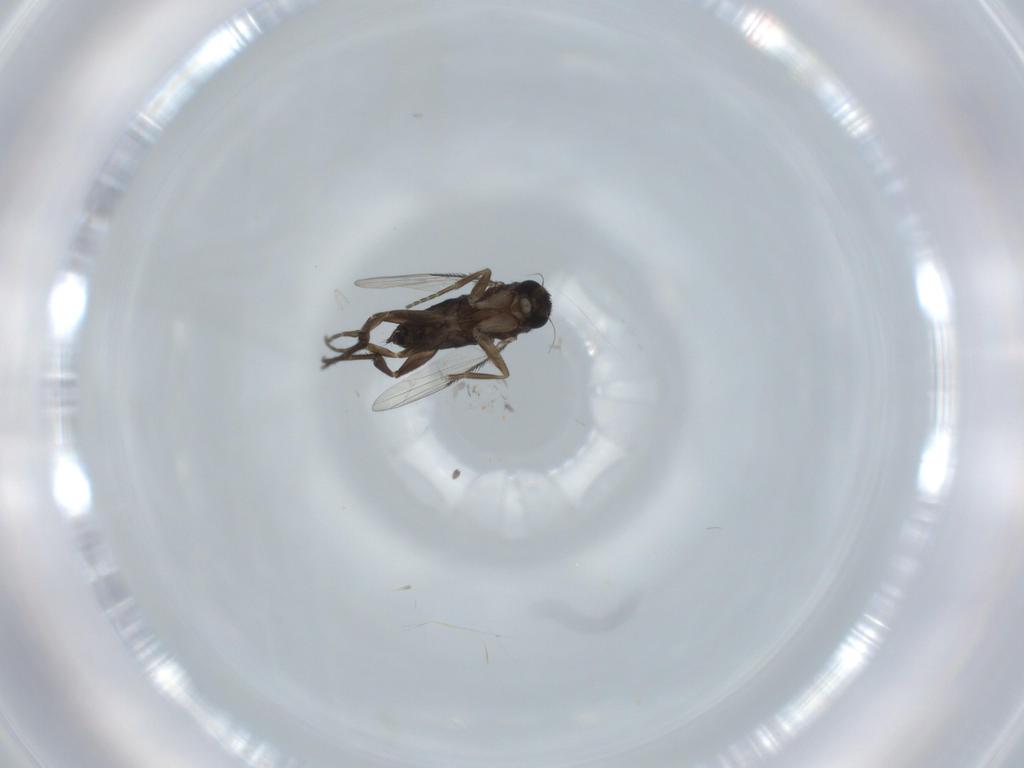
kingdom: Animalia
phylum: Arthropoda
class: Insecta
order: Diptera
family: Phoridae
